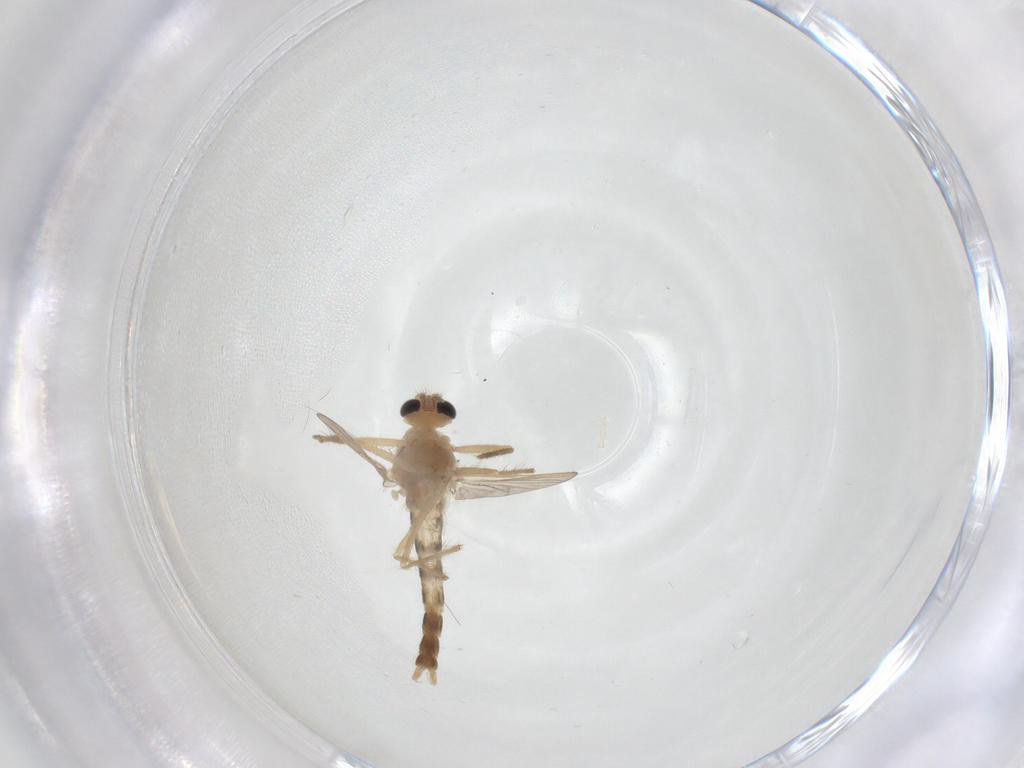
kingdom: Animalia
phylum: Arthropoda
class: Insecta
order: Diptera
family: Chironomidae
